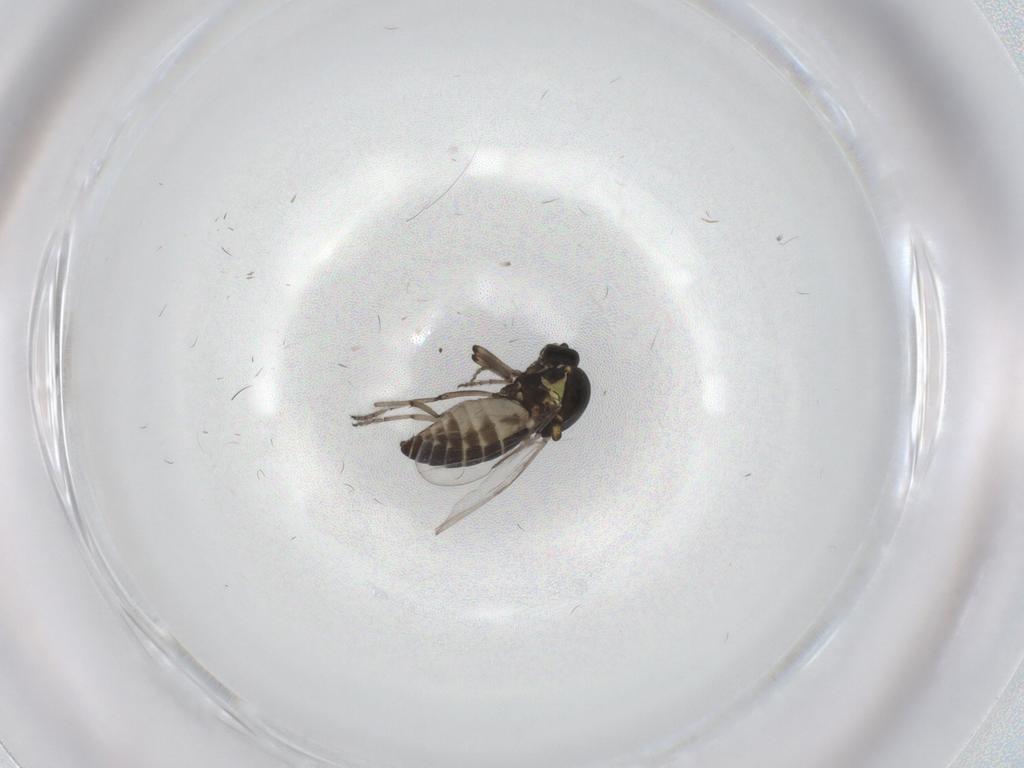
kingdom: Animalia
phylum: Arthropoda
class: Insecta
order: Diptera
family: Ceratopogonidae
